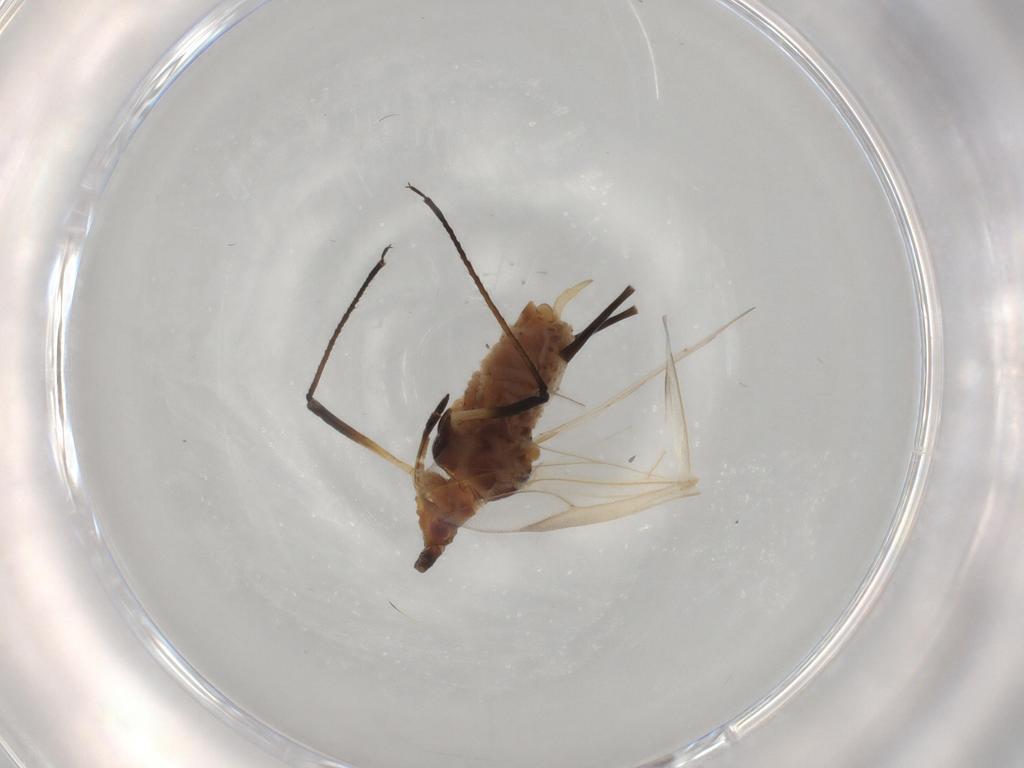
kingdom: Animalia
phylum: Arthropoda
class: Insecta
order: Hemiptera
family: Aphididae
